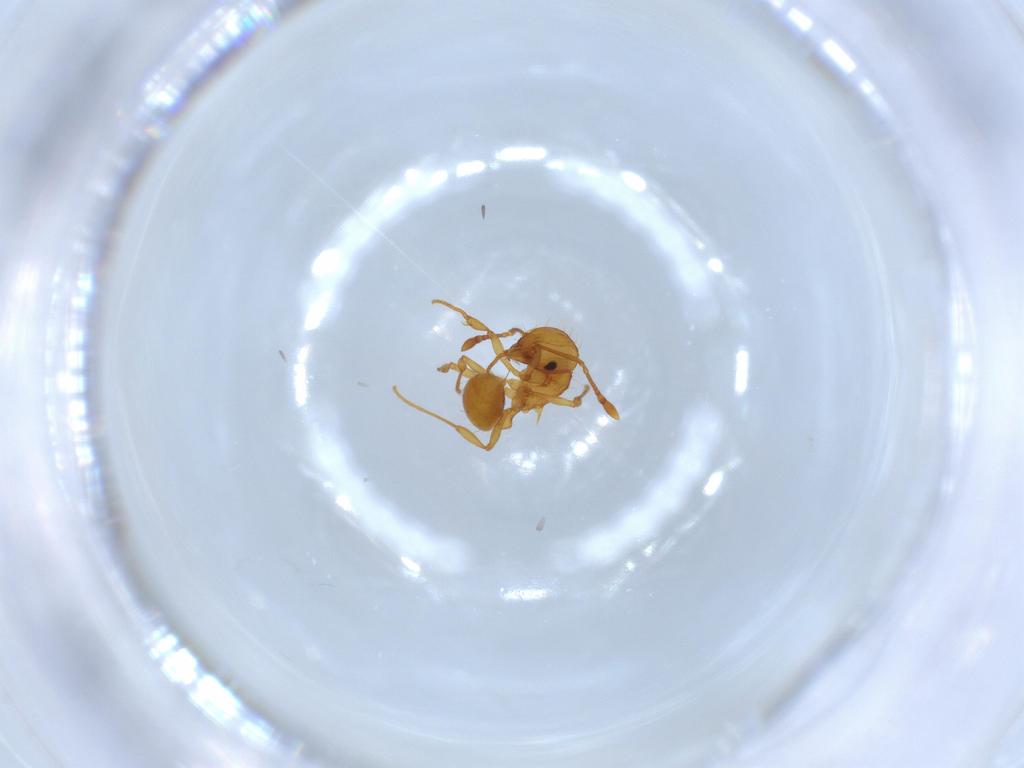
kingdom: Animalia
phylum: Arthropoda
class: Insecta
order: Hymenoptera
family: Formicidae
